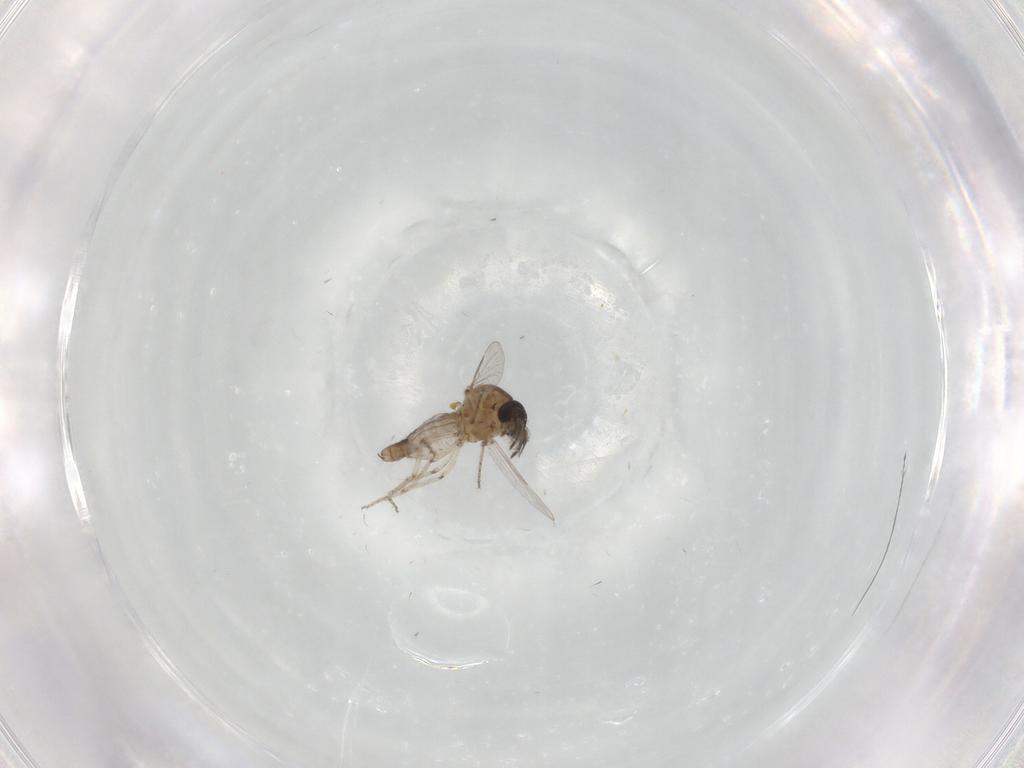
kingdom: Animalia
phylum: Arthropoda
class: Insecta
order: Diptera
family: Ceratopogonidae
